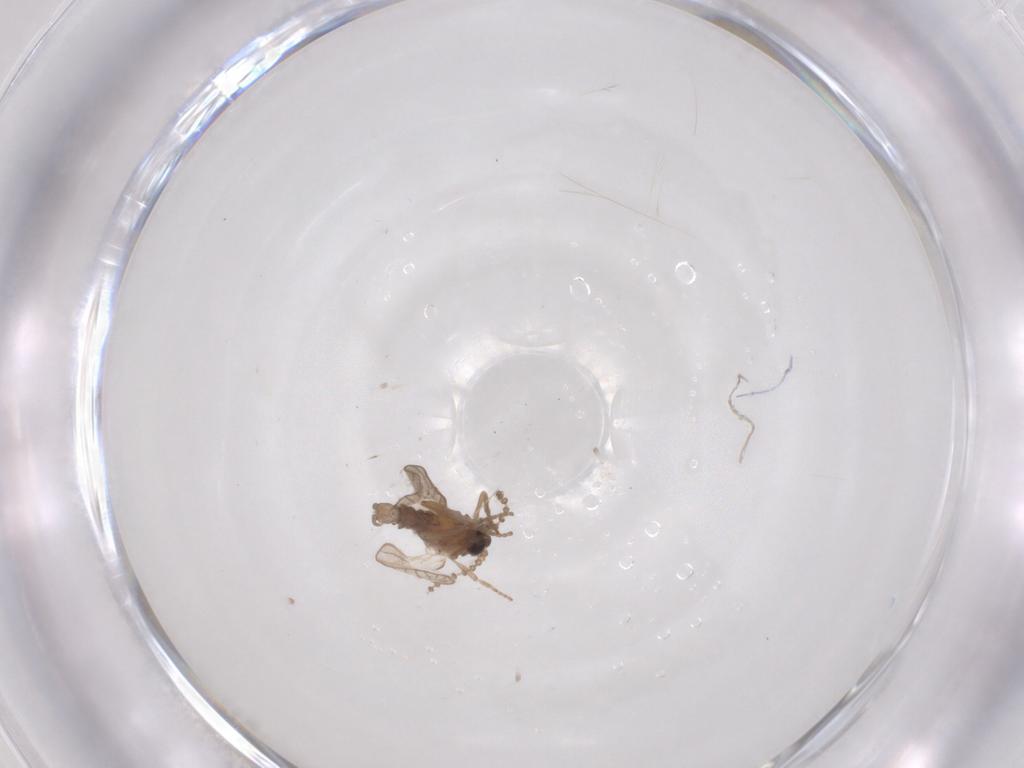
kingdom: Animalia
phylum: Arthropoda
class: Insecta
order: Diptera
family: Psychodidae
